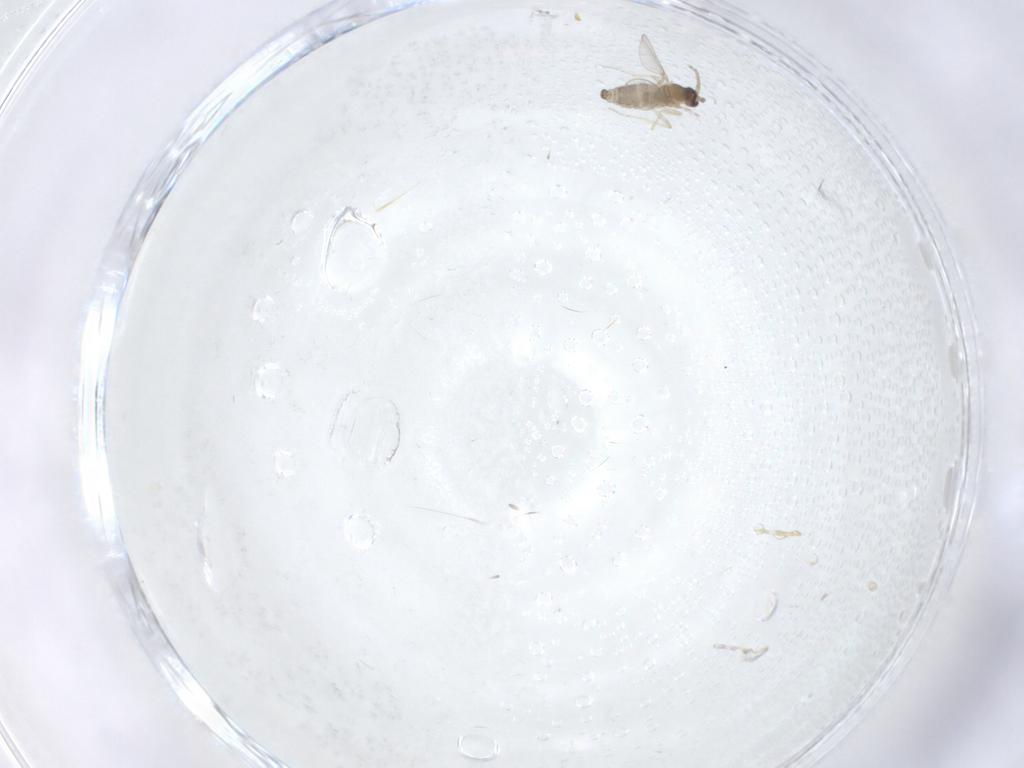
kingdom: Animalia
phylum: Arthropoda
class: Insecta
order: Diptera
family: Cecidomyiidae
